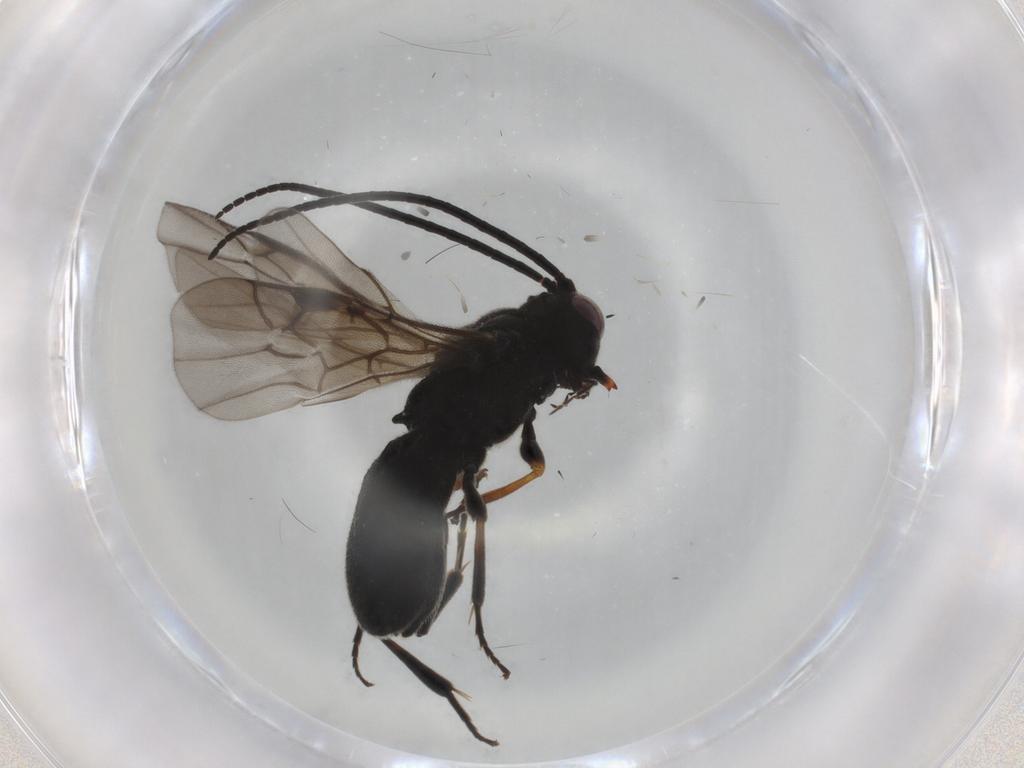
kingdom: Animalia
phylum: Arthropoda
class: Insecta
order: Hymenoptera
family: Braconidae
